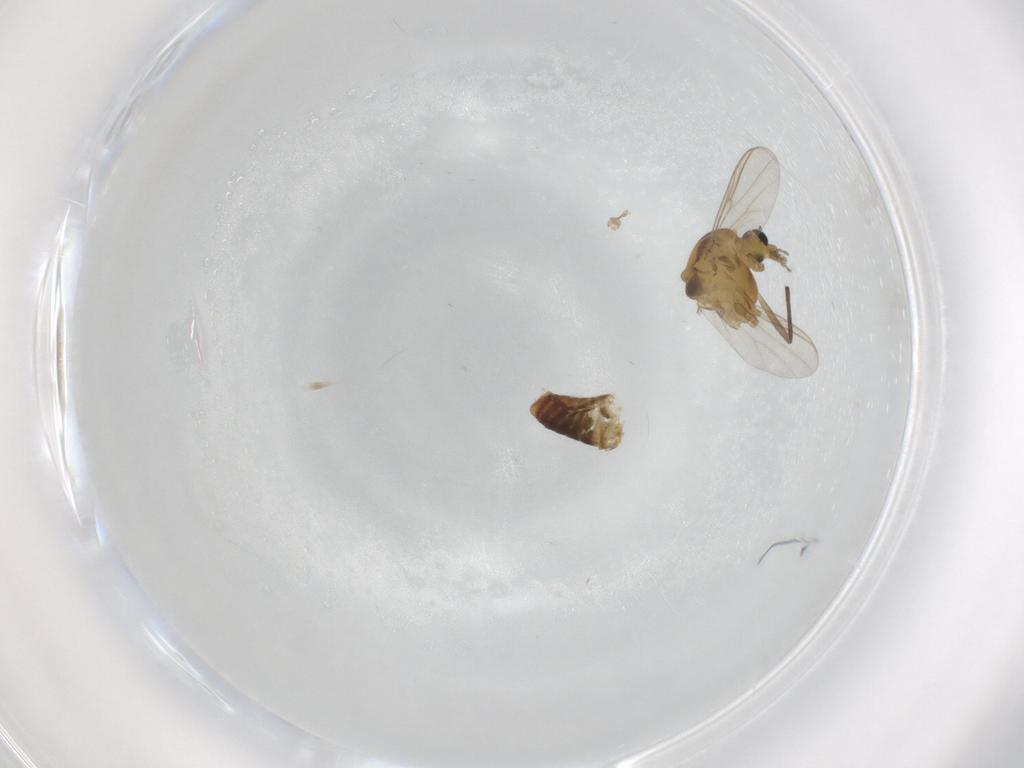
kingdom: Animalia
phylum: Arthropoda
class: Insecta
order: Diptera
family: Chironomidae
